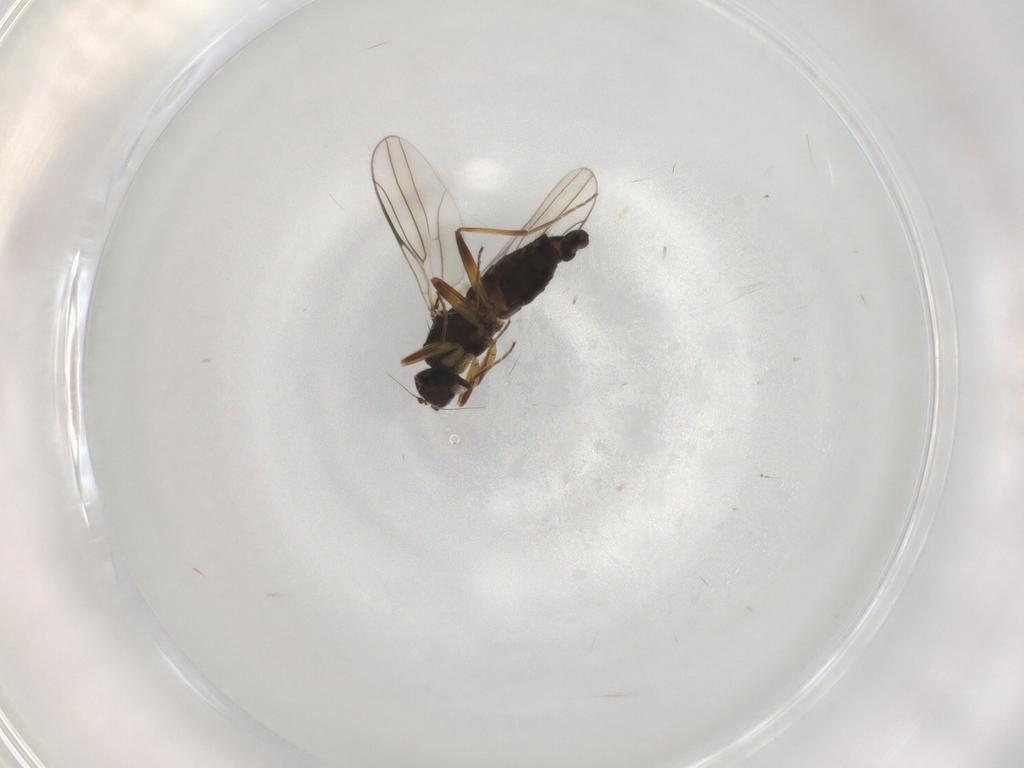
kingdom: Animalia
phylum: Arthropoda
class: Insecta
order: Diptera
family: Hybotidae
